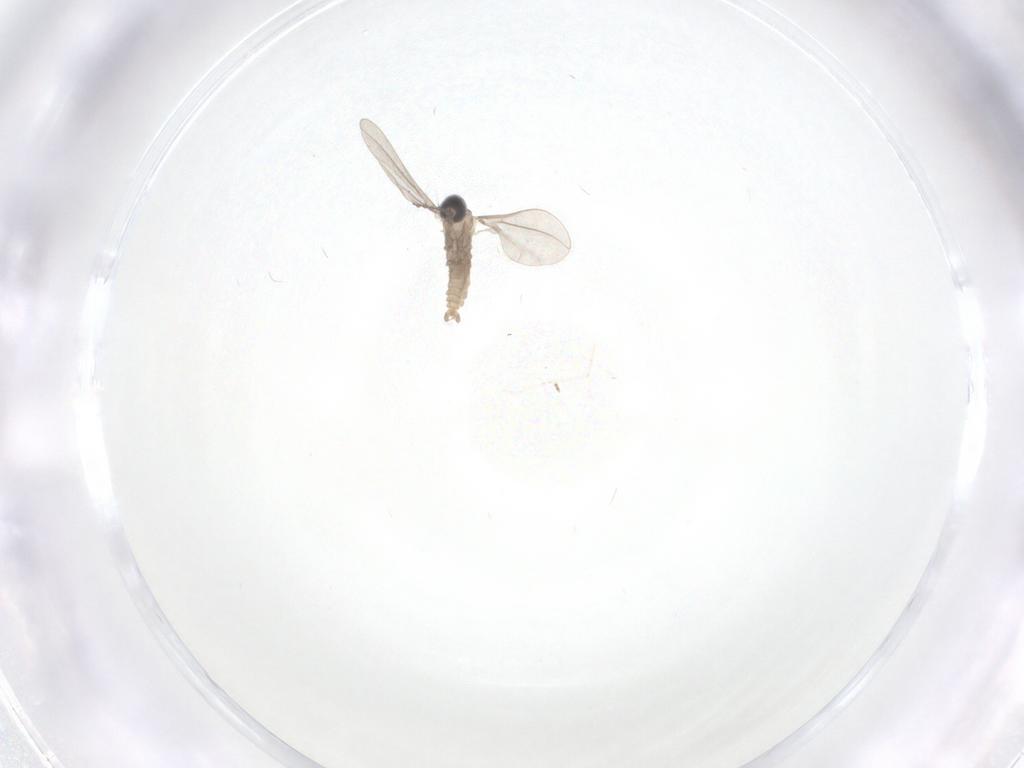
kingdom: Animalia
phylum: Arthropoda
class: Insecta
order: Diptera
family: Cecidomyiidae
